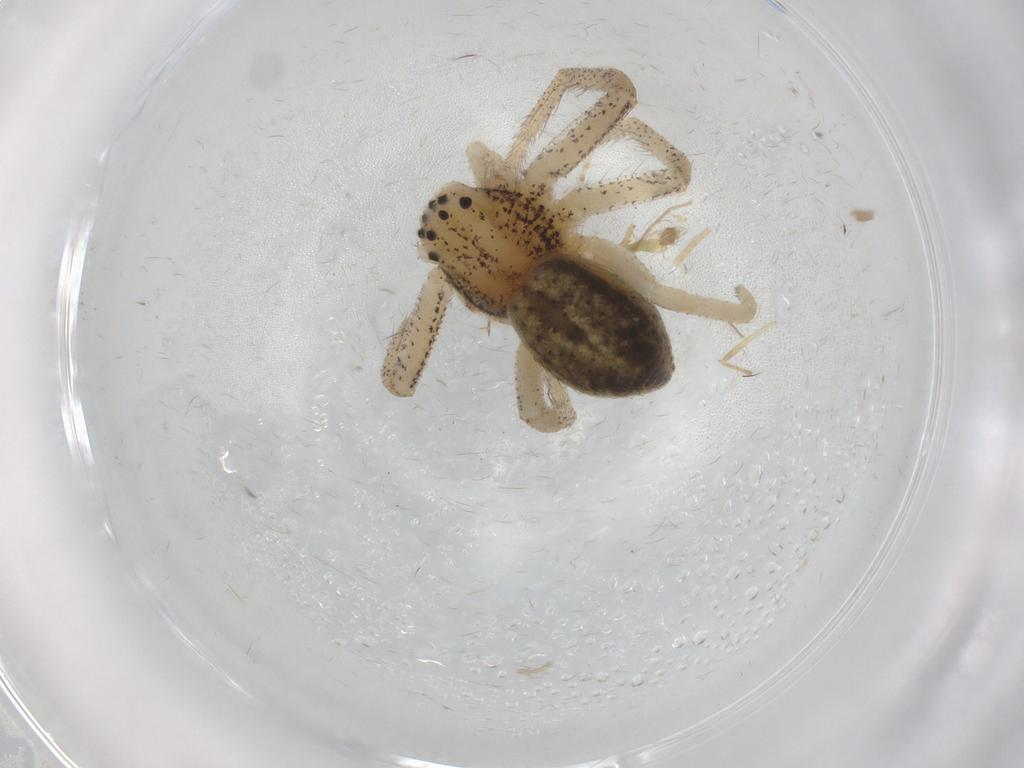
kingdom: Animalia
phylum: Arthropoda
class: Arachnida
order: Araneae
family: Philodromidae
